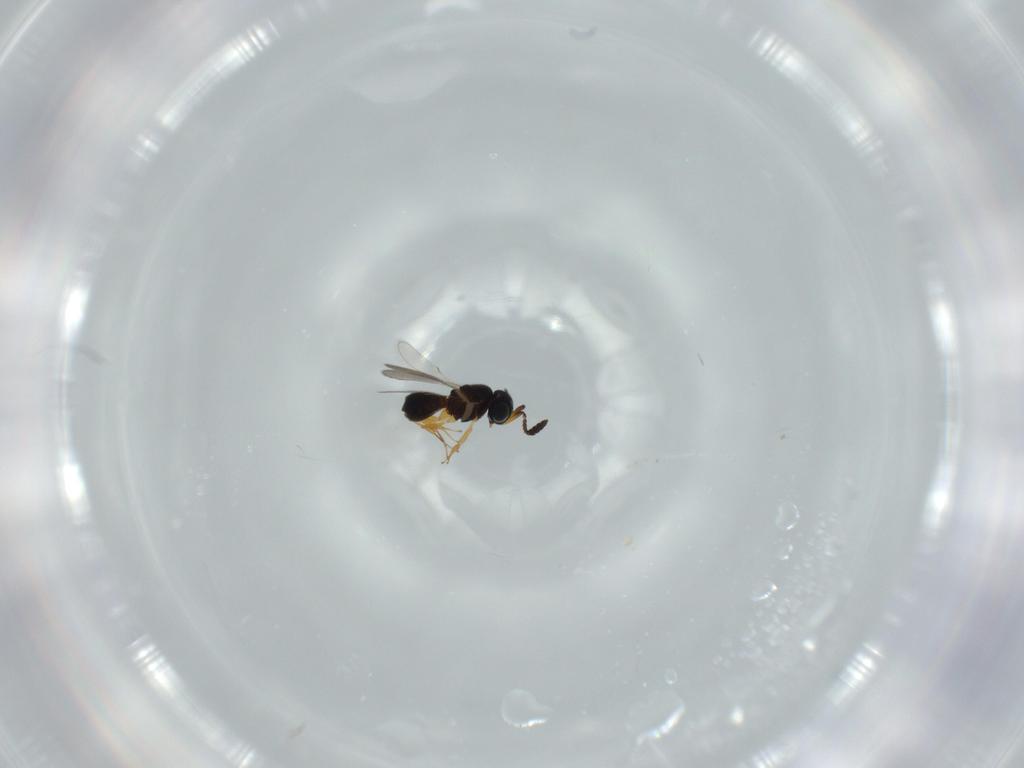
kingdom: Animalia
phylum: Arthropoda
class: Insecta
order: Hymenoptera
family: Scelionidae
